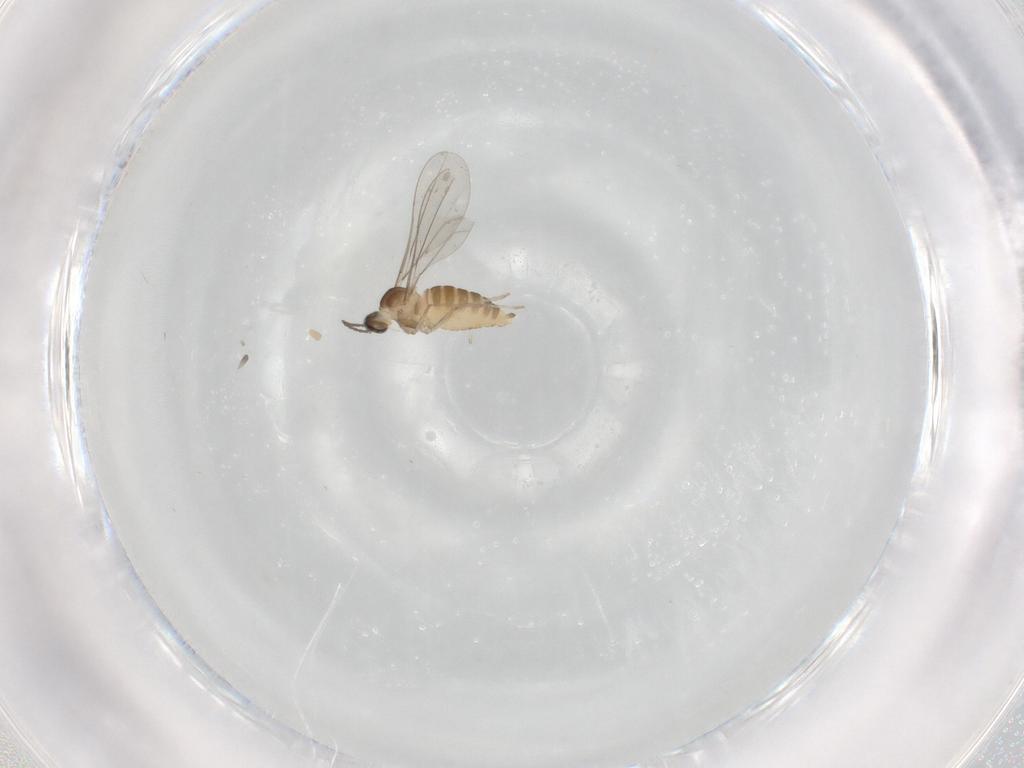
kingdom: Animalia
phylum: Arthropoda
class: Insecta
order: Diptera
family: Cecidomyiidae
